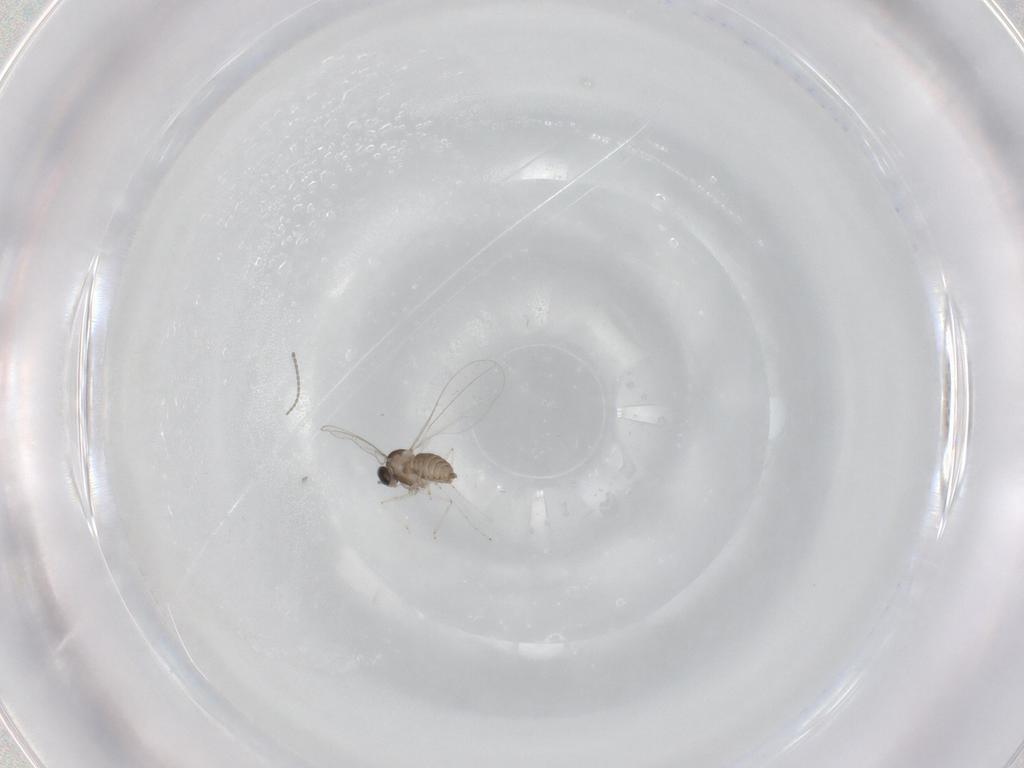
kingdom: Animalia
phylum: Arthropoda
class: Insecta
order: Diptera
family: Cecidomyiidae
